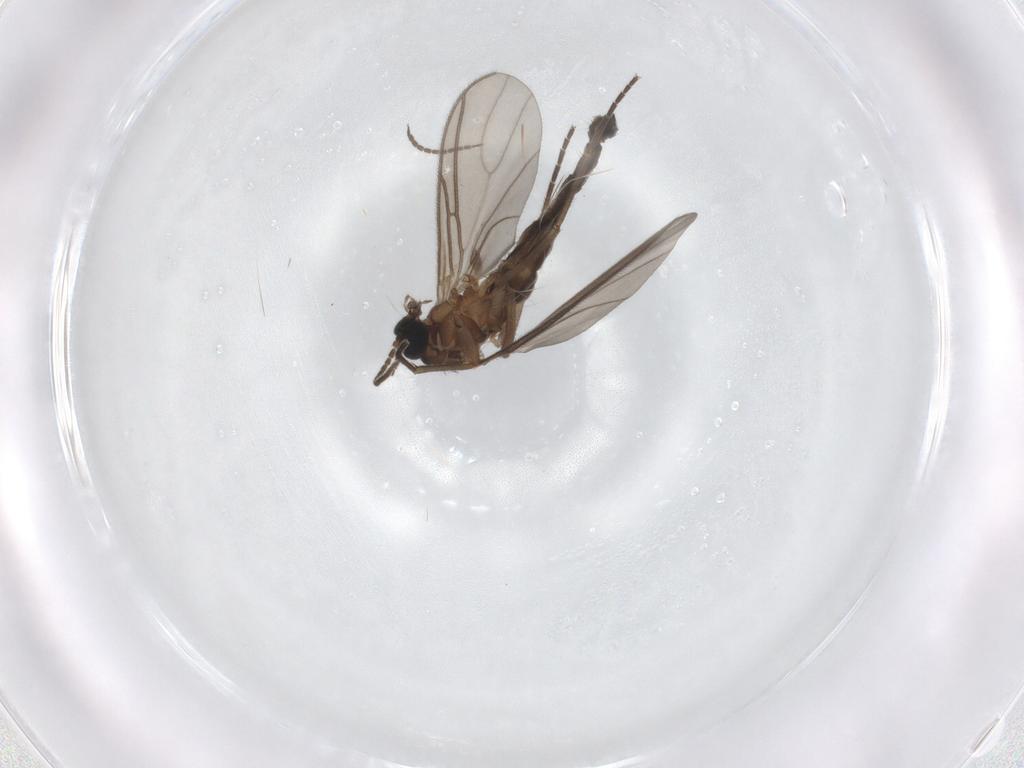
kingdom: Animalia
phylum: Arthropoda
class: Insecta
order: Diptera
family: Sciaridae
